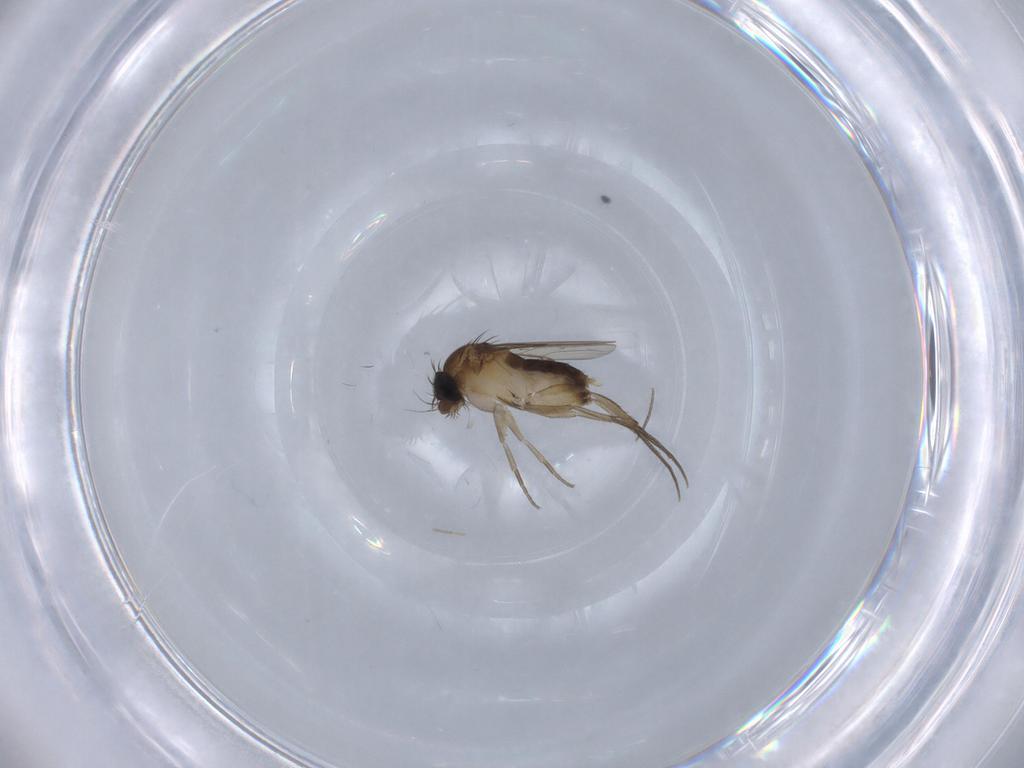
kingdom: Animalia
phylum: Arthropoda
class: Insecta
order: Diptera
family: Phoridae
